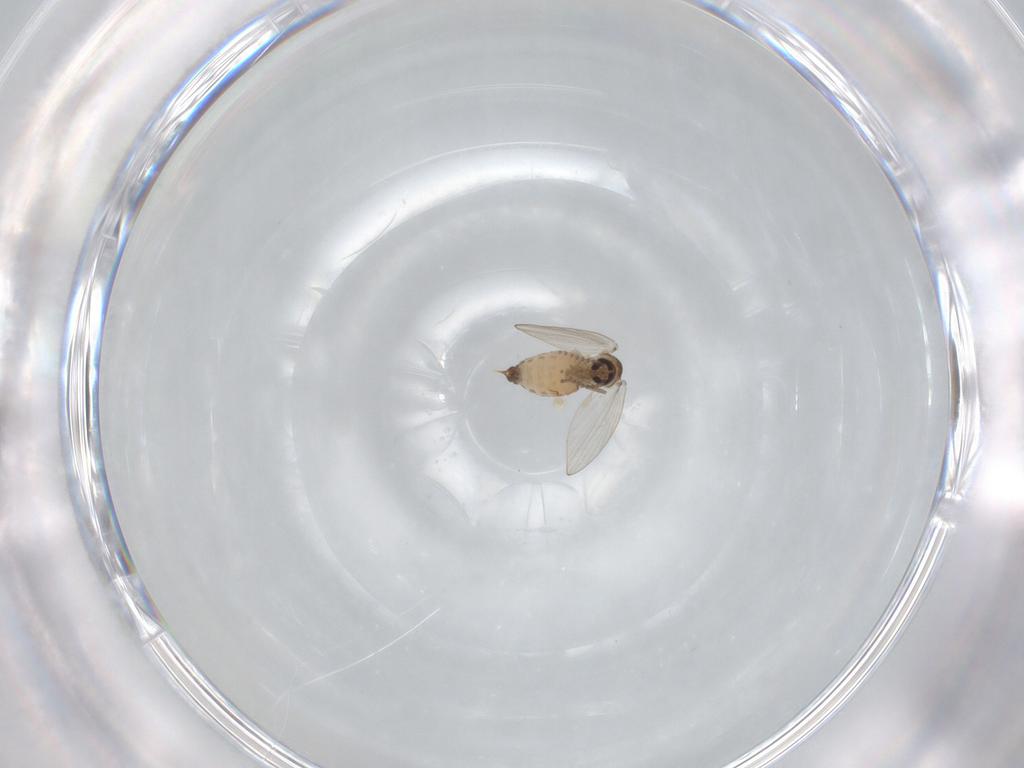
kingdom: Animalia
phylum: Arthropoda
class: Insecta
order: Diptera
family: Psychodidae
